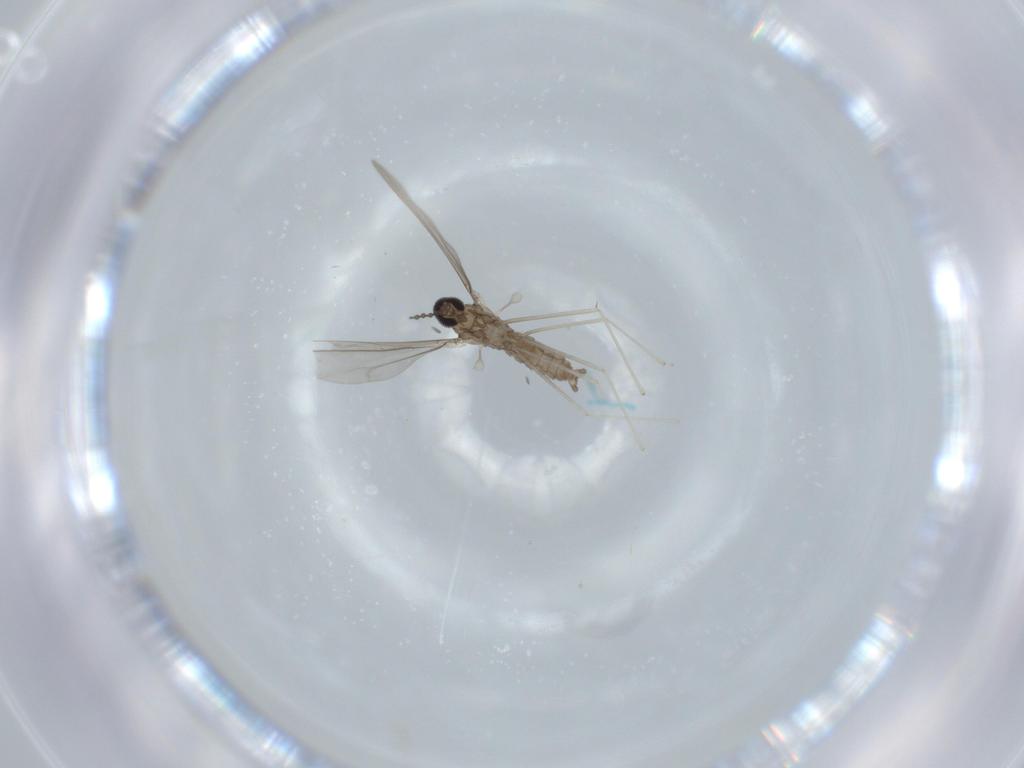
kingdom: Animalia
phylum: Arthropoda
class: Insecta
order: Diptera
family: Cecidomyiidae
